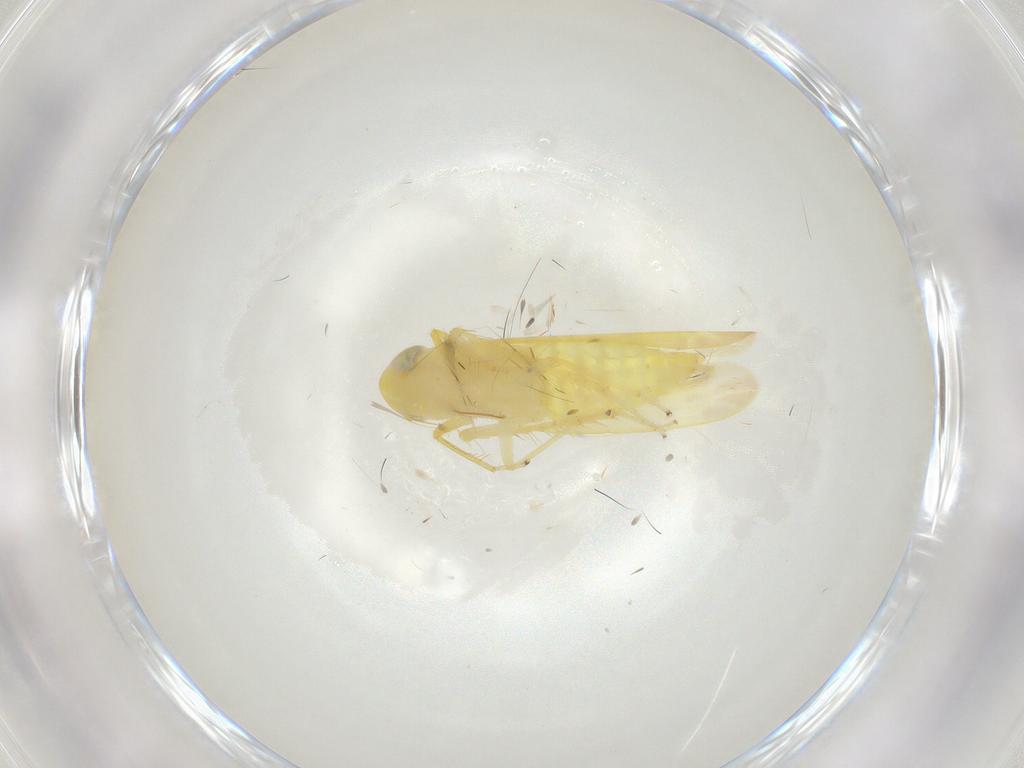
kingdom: Animalia
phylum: Arthropoda
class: Insecta
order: Hemiptera
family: Cicadellidae
